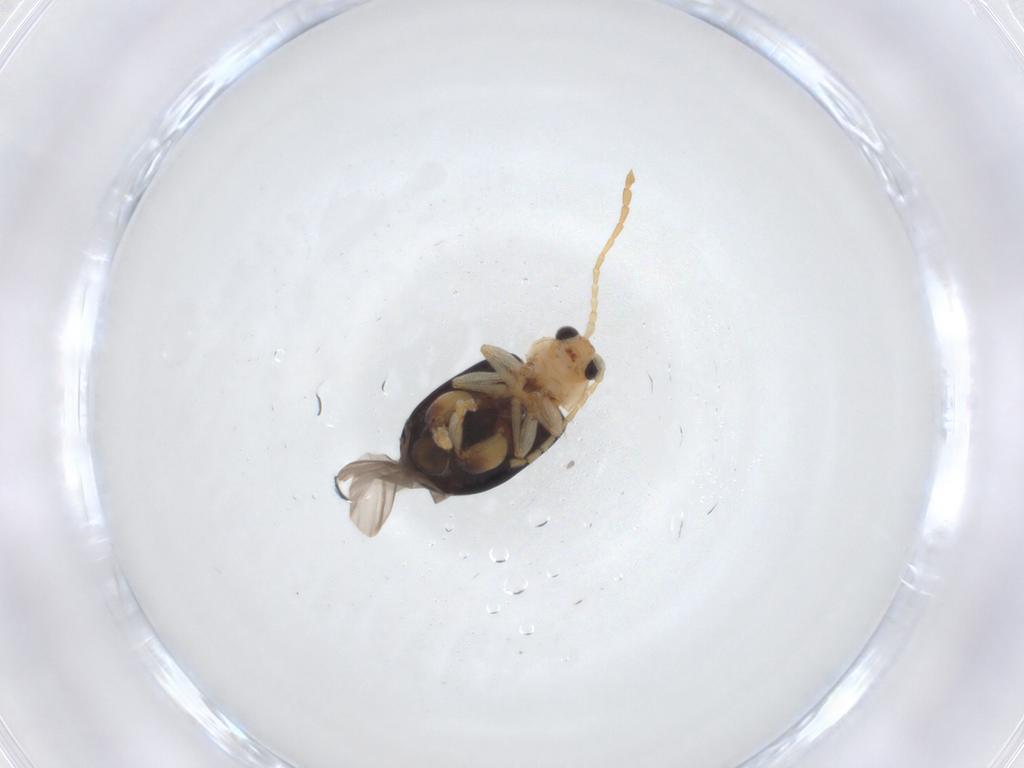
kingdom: Animalia
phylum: Arthropoda
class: Insecta
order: Coleoptera
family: Chrysomelidae
